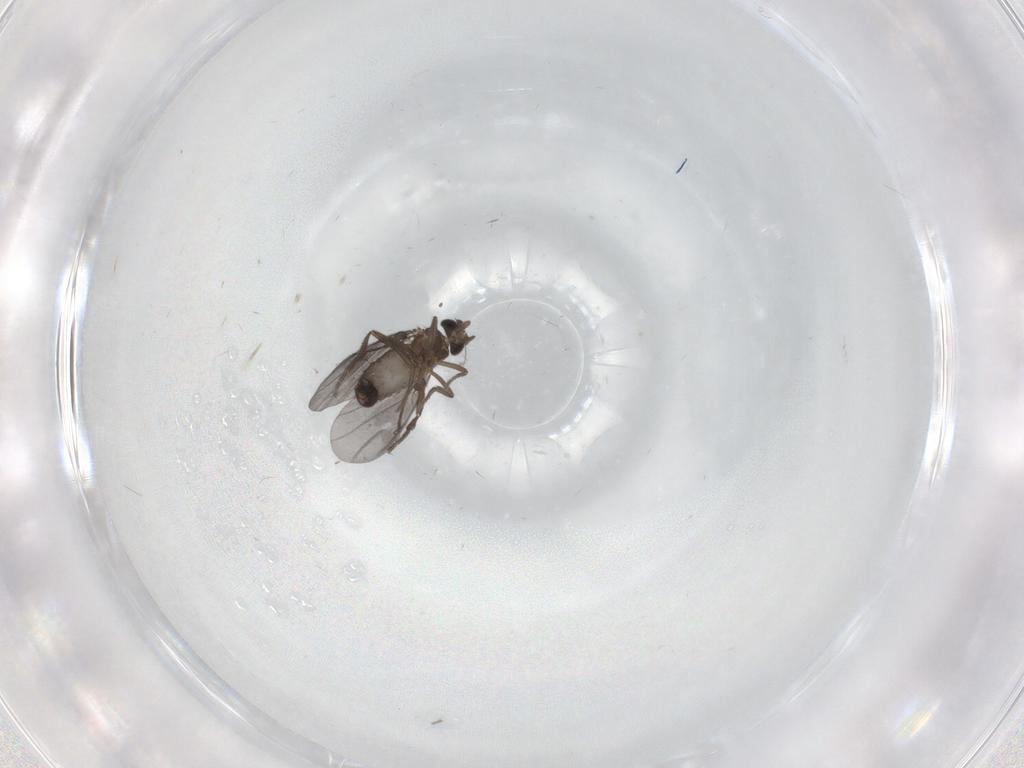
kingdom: Animalia
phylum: Arthropoda
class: Insecta
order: Diptera
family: Phoridae
